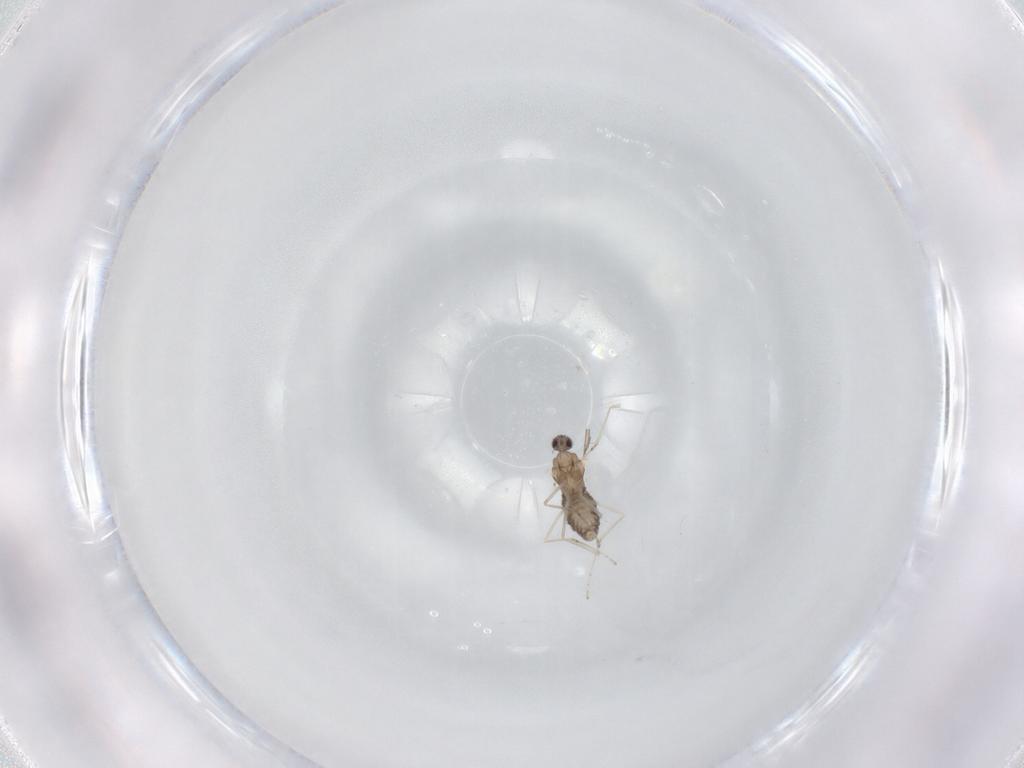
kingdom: Animalia
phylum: Arthropoda
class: Insecta
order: Diptera
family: Cecidomyiidae
